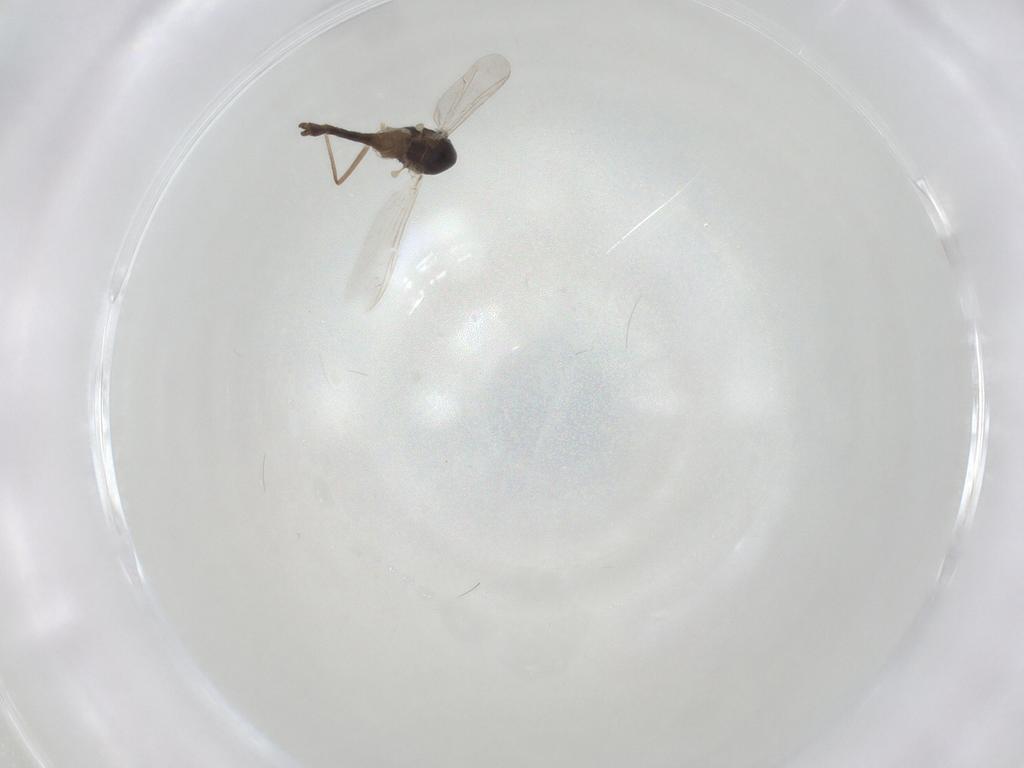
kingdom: Animalia
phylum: Arthropoda
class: Insecta
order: Diptera
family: Chironomidae
